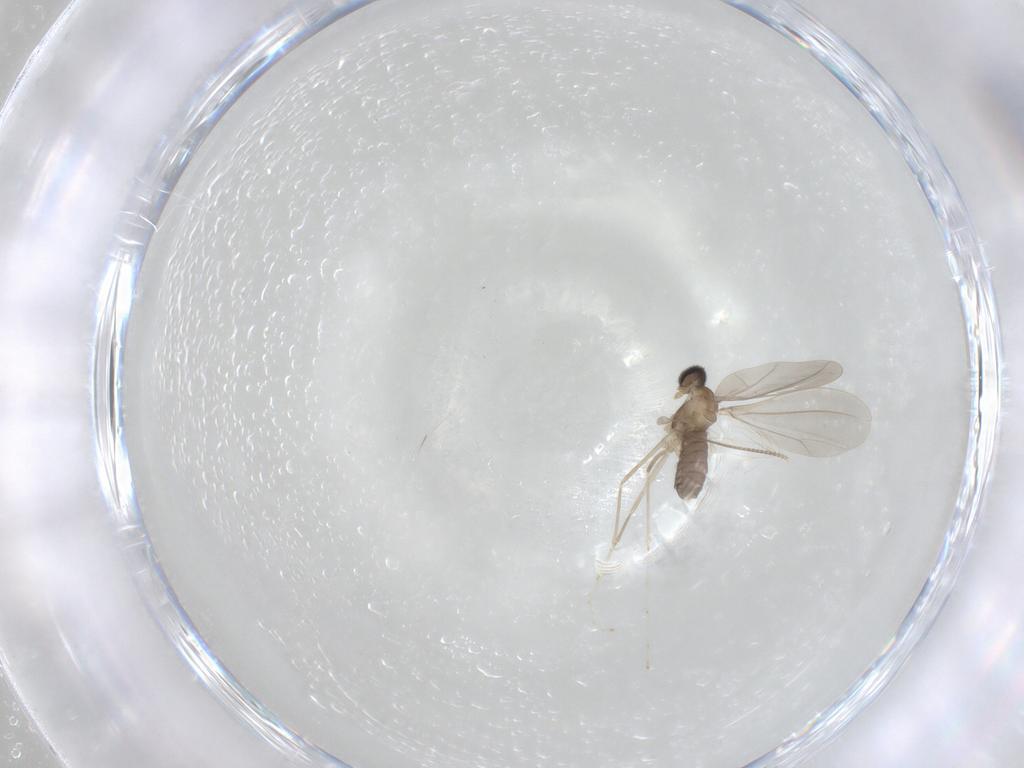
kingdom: Animalia
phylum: Arthropoda
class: Insecta
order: Diptera
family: Cecidomyiidae
